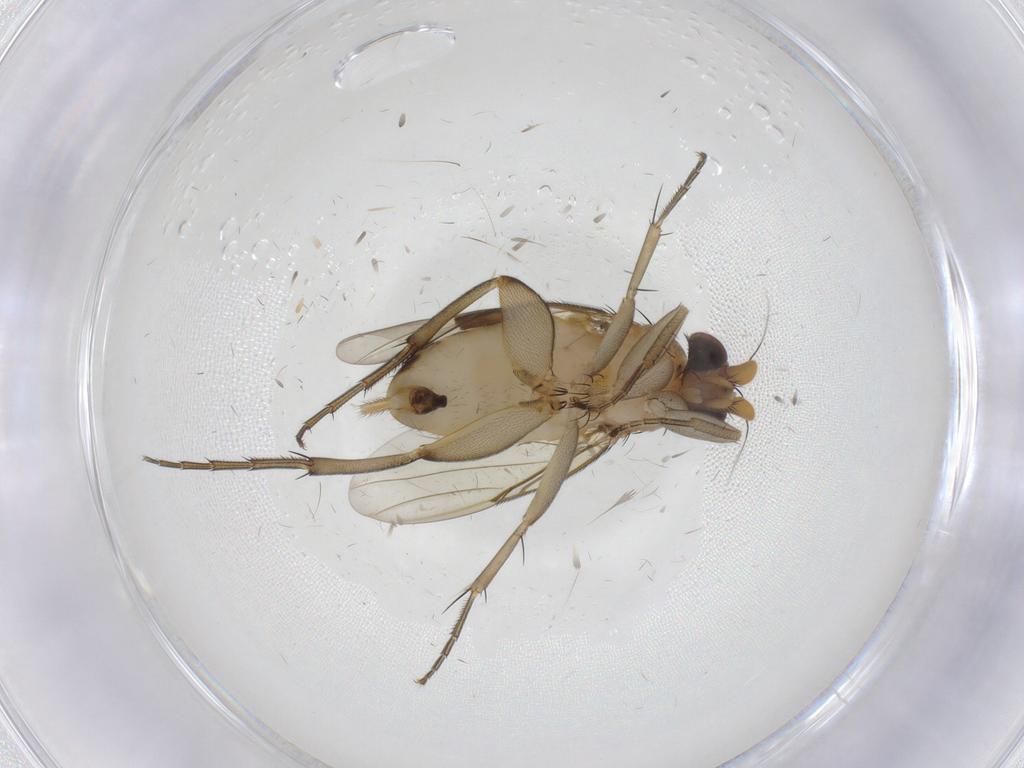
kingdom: Animalia
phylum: Arthropoda
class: Insecta
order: Diptera
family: Phoridae
